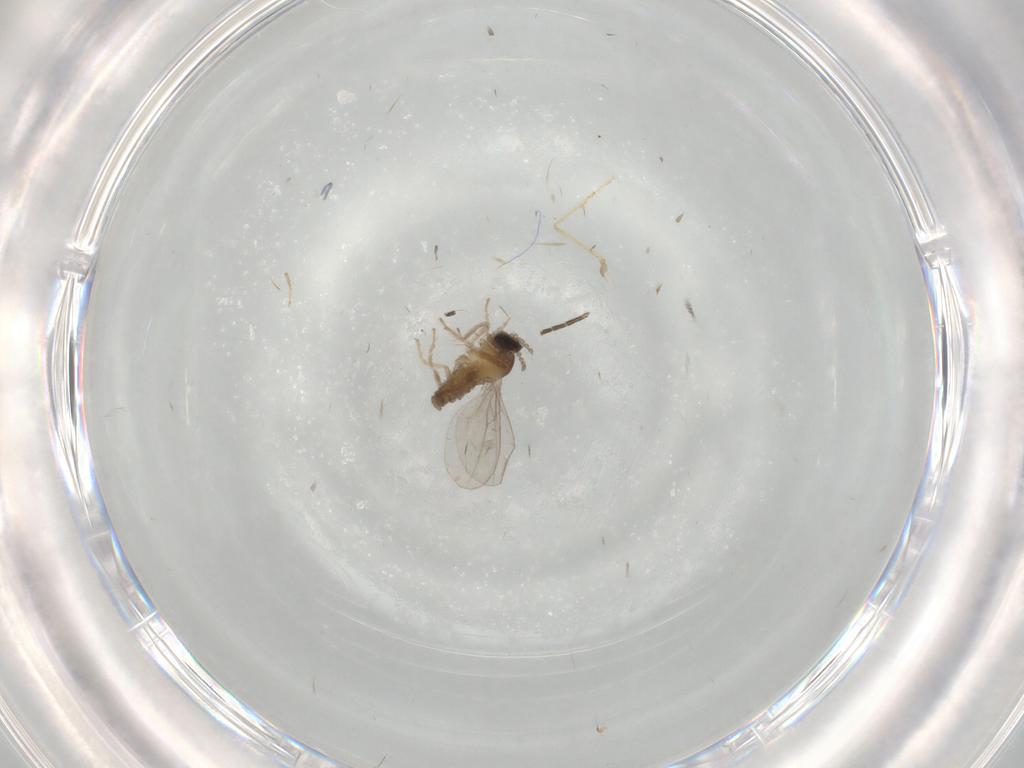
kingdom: Animalia
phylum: Arthropoda
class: Insecta
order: Diptera
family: Cecidomyiidae
